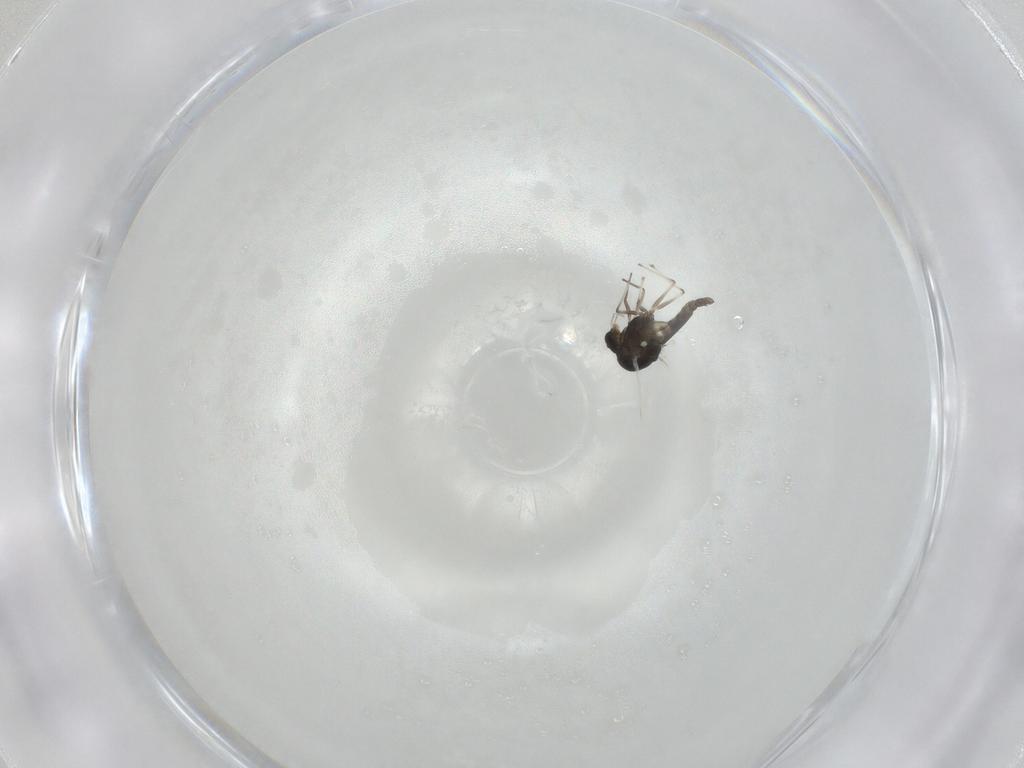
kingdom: Animalia
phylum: Arthropoda
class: Insecta
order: Diptera
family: Chironomidae
